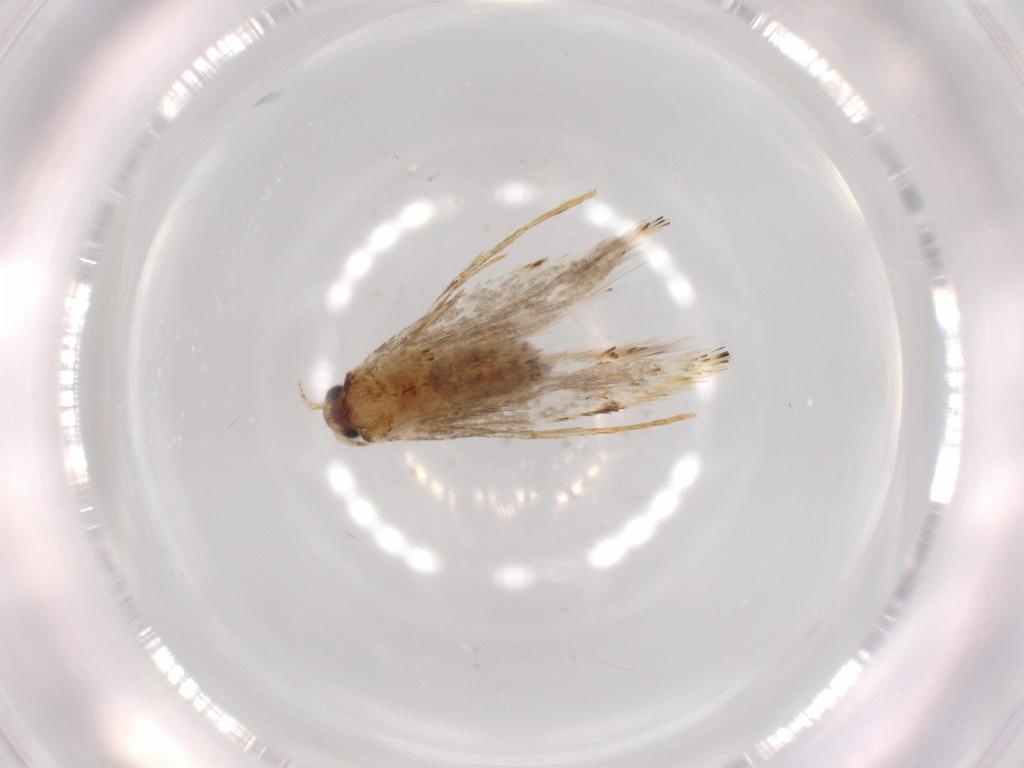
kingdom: Animalia
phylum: Arthropoda
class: Insecta
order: Lepidoptera
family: Tineidae
